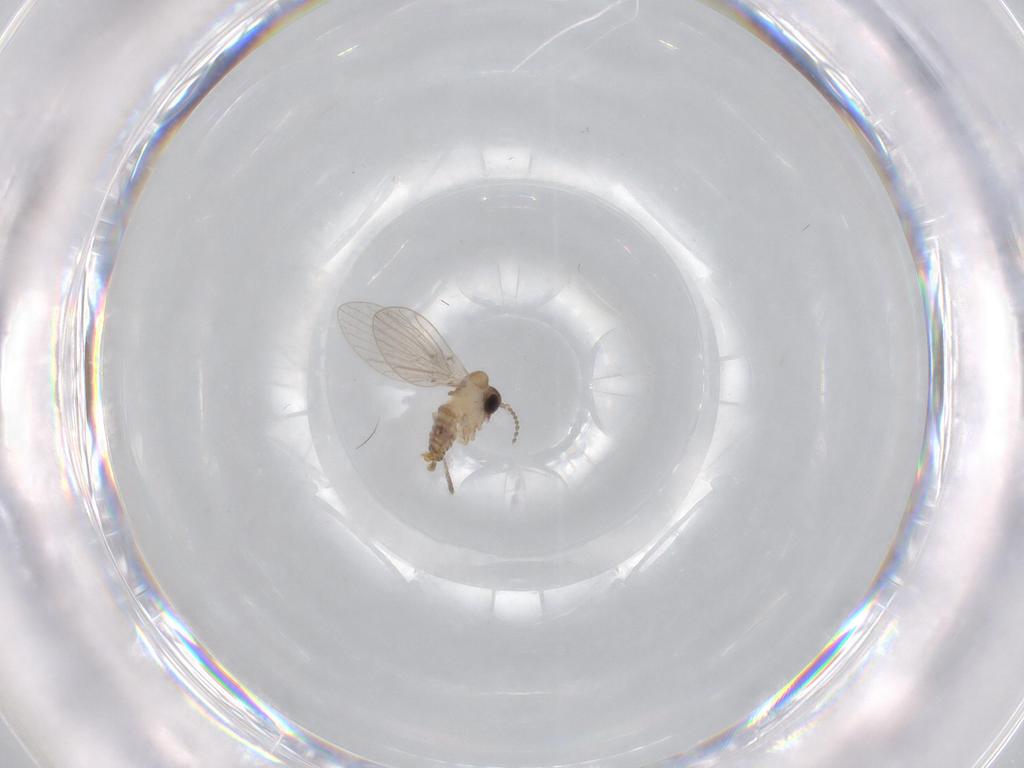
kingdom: Animalia
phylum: Arthropoda
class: Insecta
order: Diptera
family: Psychodidae
